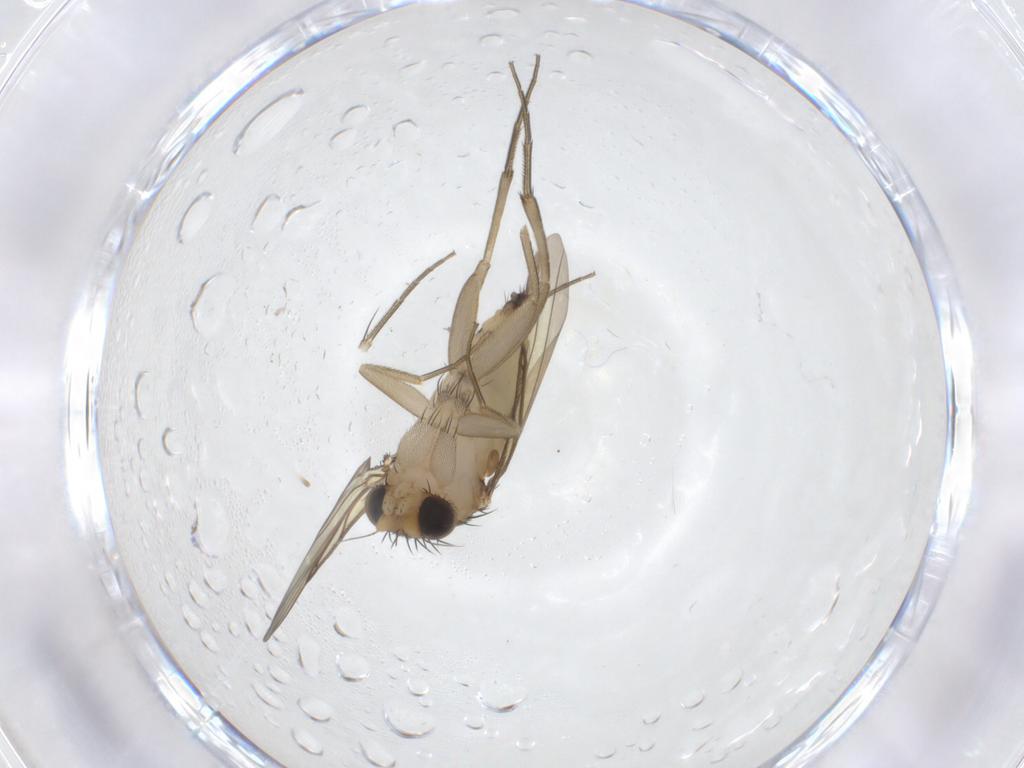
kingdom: Animalia
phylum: Arthropoda
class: Insecta
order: Diptera
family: Phoridae
